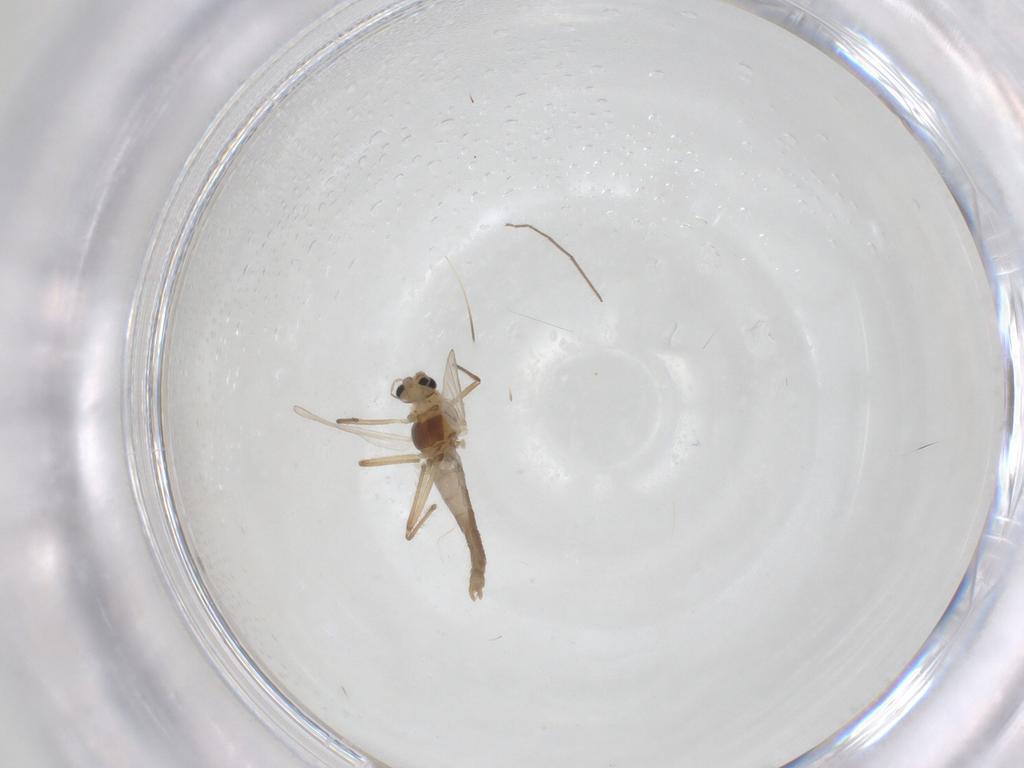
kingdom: Animalia
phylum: Arthropoda
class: Insecta
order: Diptera
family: Chironomidae
